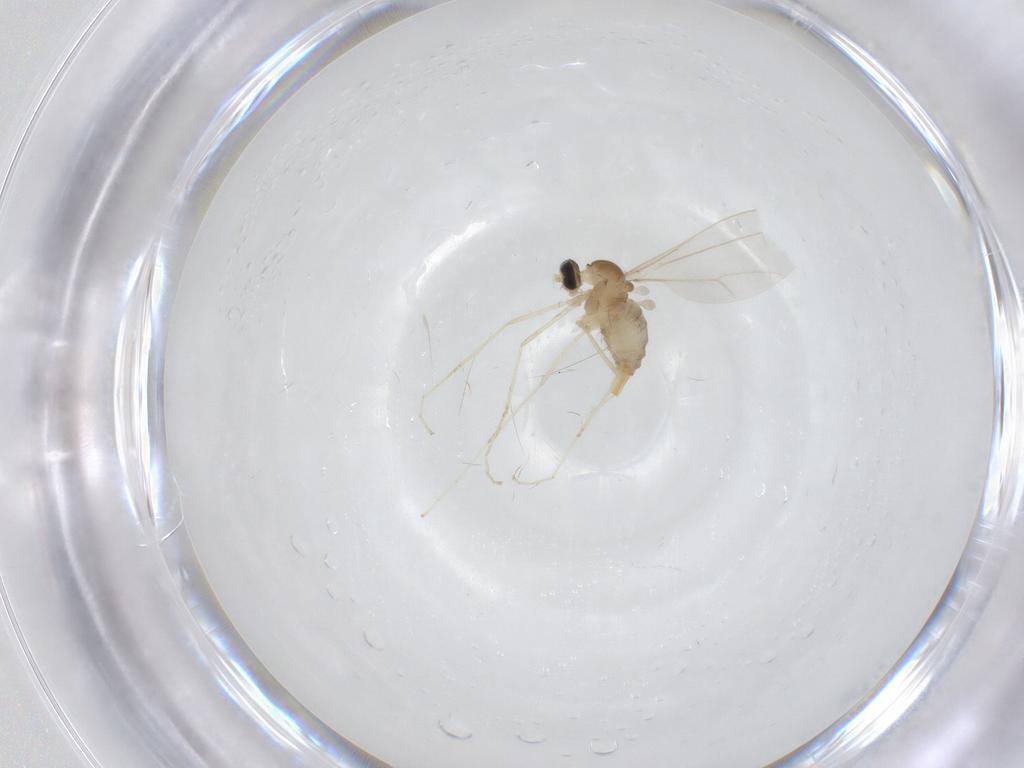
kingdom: Animalia
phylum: Arthropoda
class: Insecta
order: Diptera
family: Cecidomyiidae
